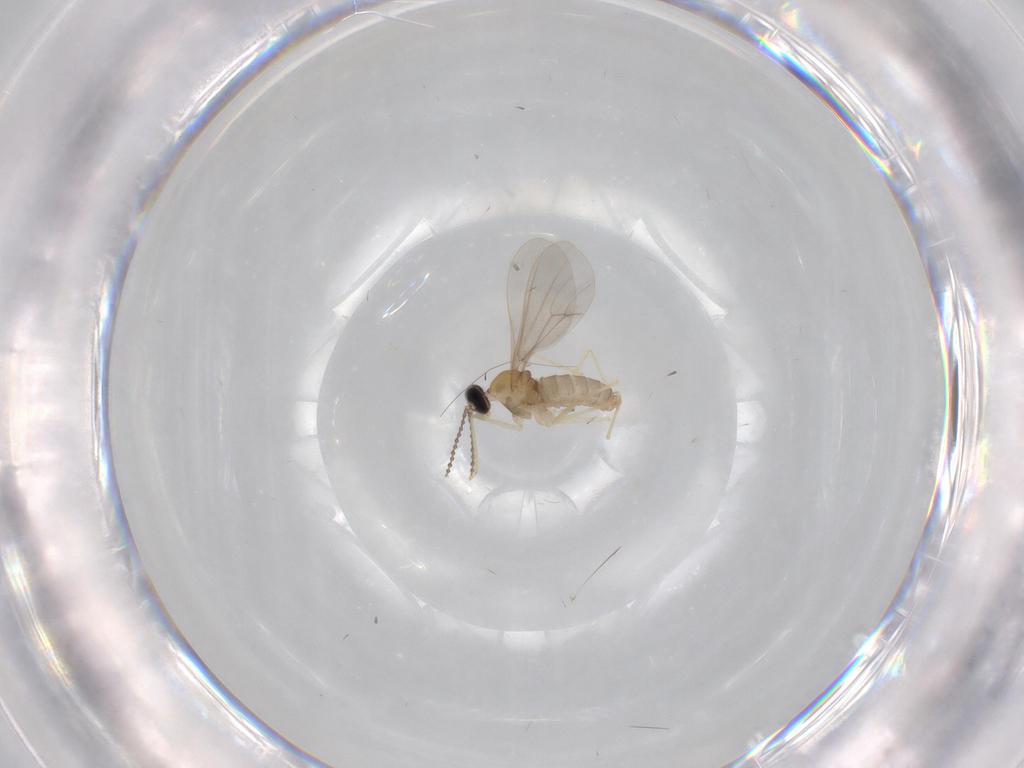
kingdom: Animalia
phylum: Arthropoda
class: Insecta
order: Diptera
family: Cecidomyiidae
